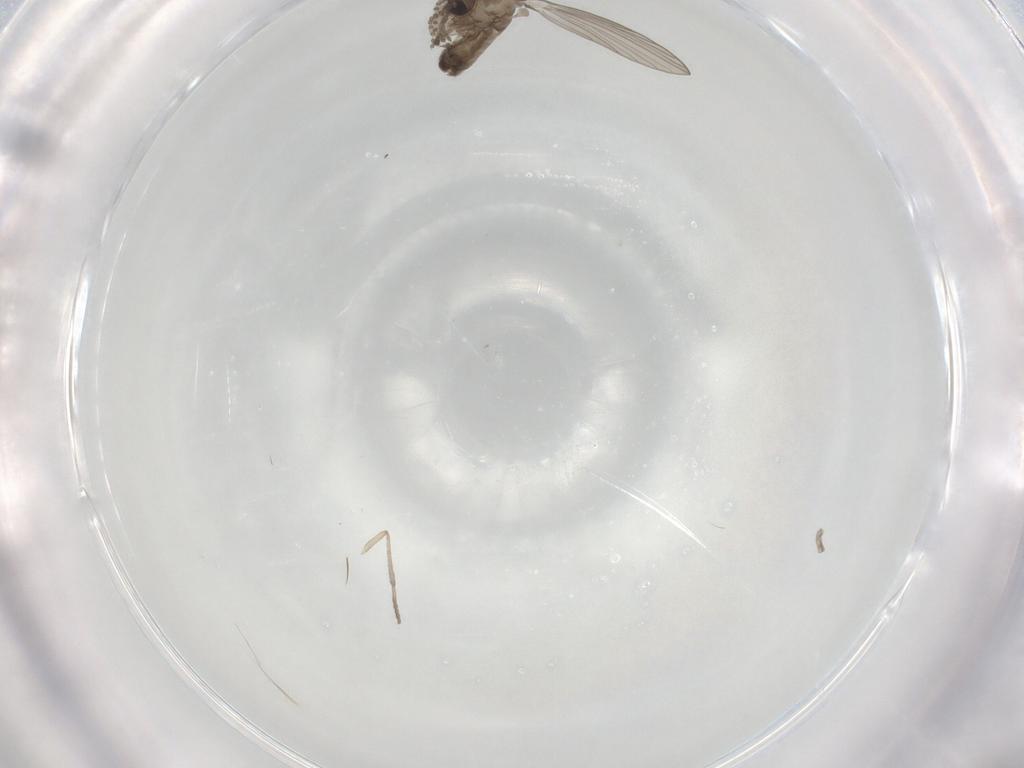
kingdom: Animalia
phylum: Arthropoda
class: Insecta
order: Diptera
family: Psychodidae
